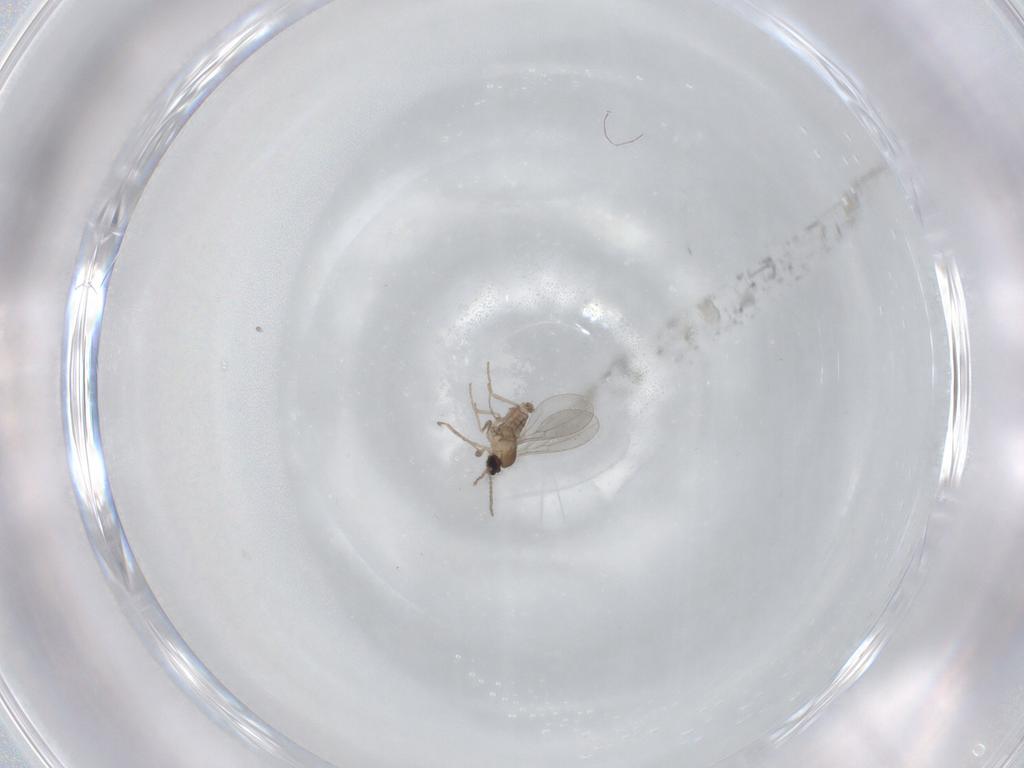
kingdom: Animalia
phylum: Arthropoda
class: Insecta
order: Diptera
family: Cecidomyiidae
